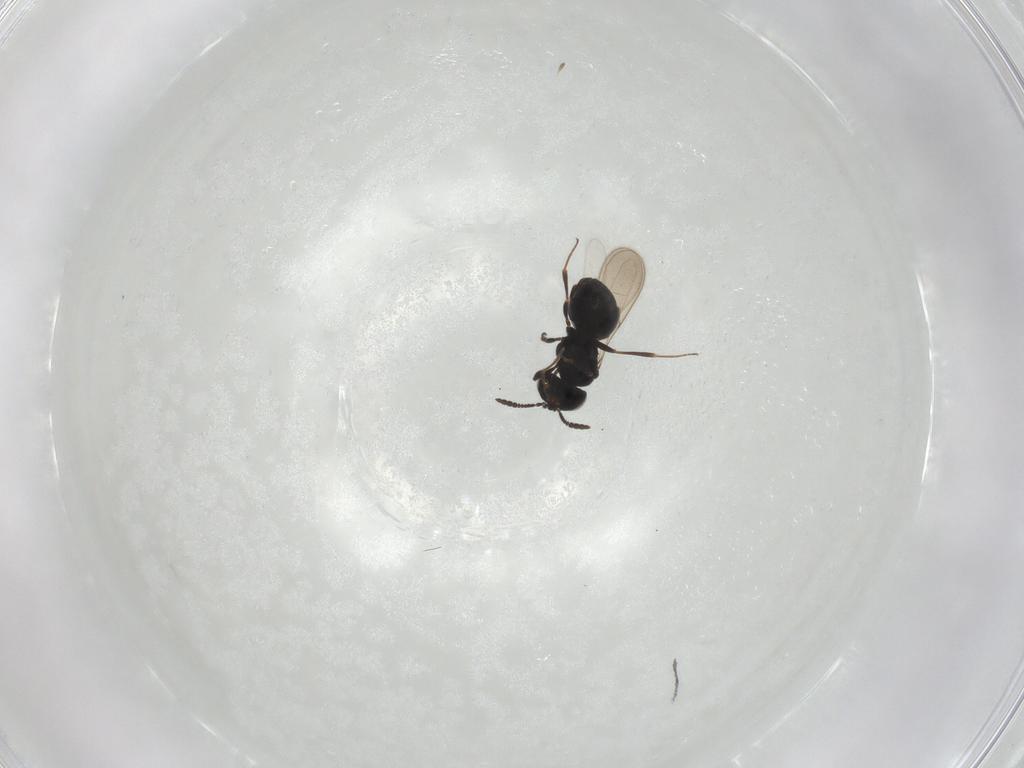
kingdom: Animalia
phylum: Arthropoda
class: Insecta
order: Hymenoptera
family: Scelionidae
